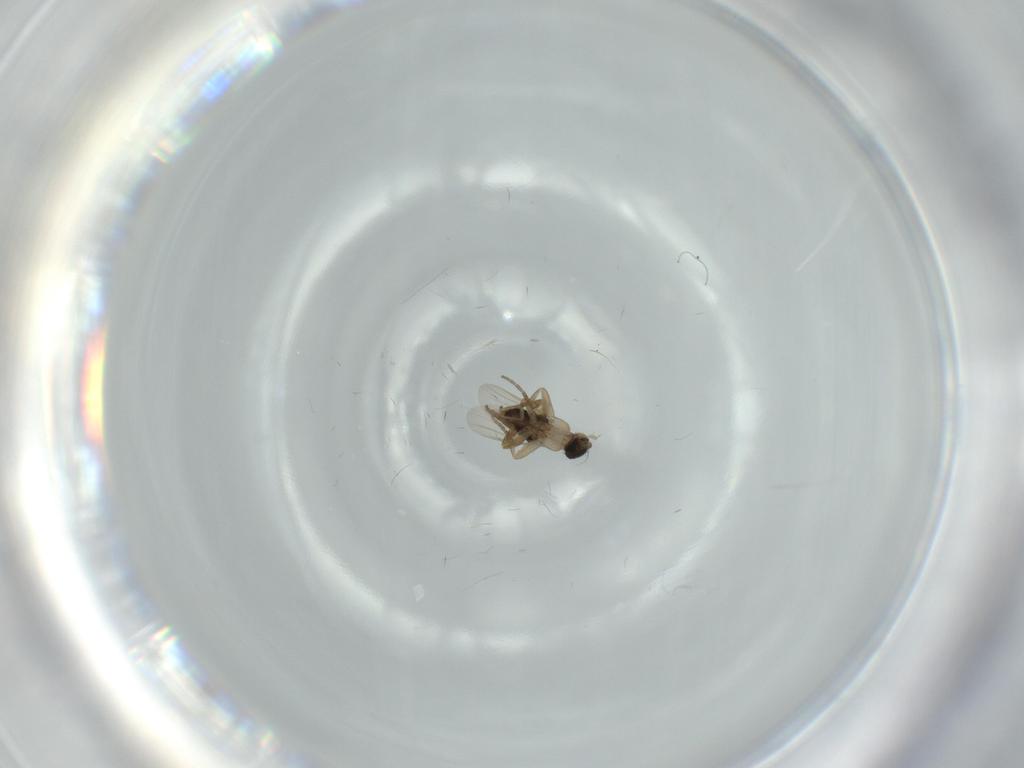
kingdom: Animalia
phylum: Arthropoda
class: Insecta
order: Diptera
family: Phoridae
